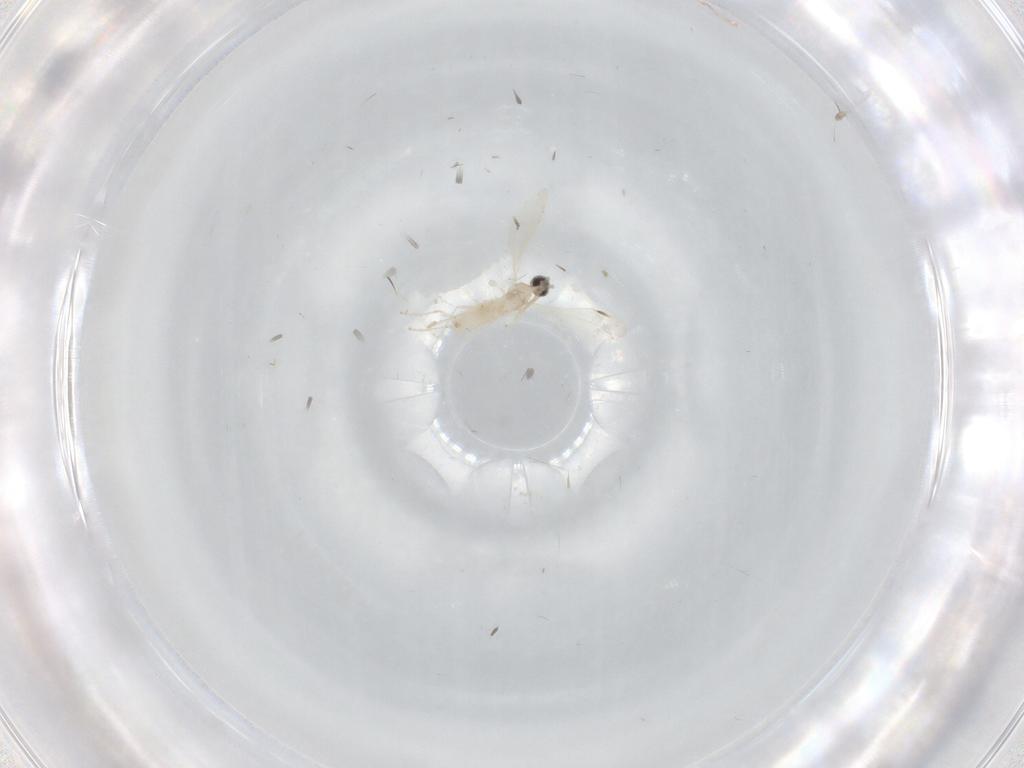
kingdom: Animalia
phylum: Arthropoda
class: Insecta
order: Diptera
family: Cecidomyiidae
